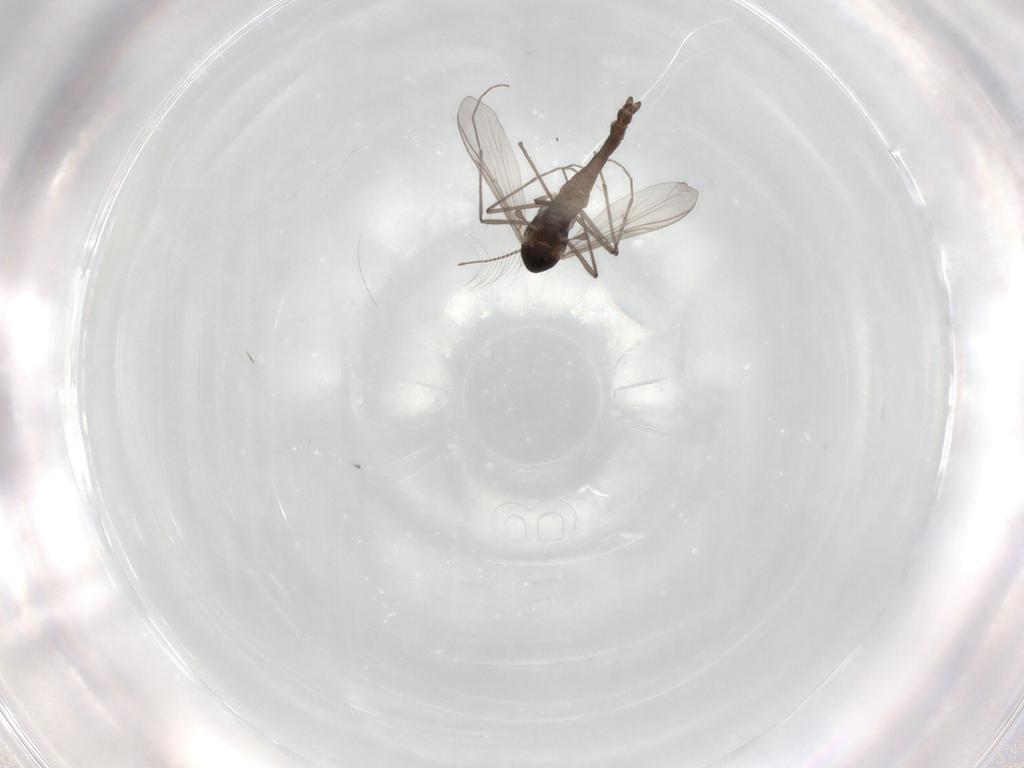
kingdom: Animalia
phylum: Arthropoda
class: Insecta
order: Diptera
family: Chironomidae
